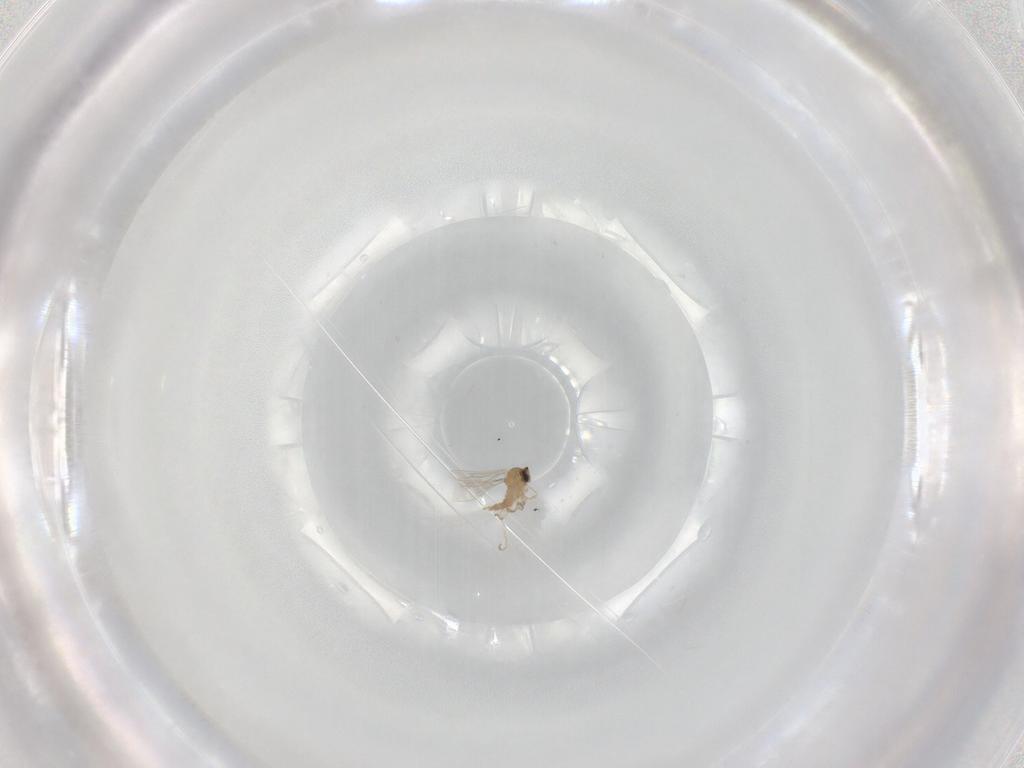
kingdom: Animalia
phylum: Arthropoda
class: Insecta
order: Diptera
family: Cecidomyiidae
